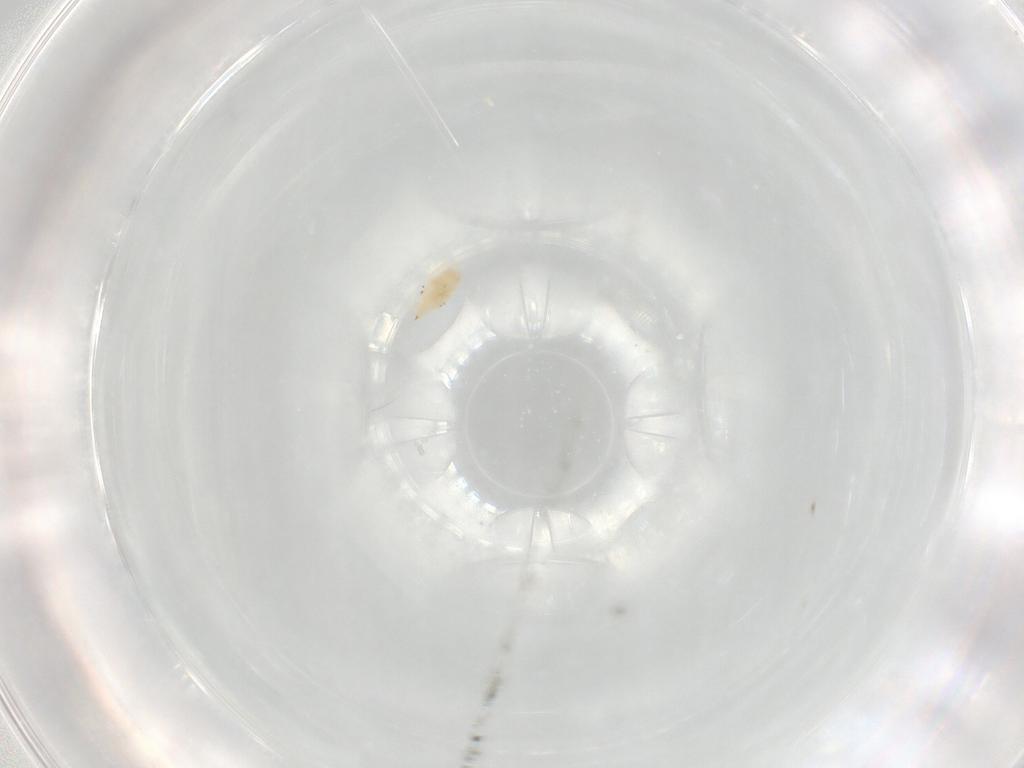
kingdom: Animalia
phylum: Arthropoda
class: Arachnida
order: Trombidiformes
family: Bdellidae
